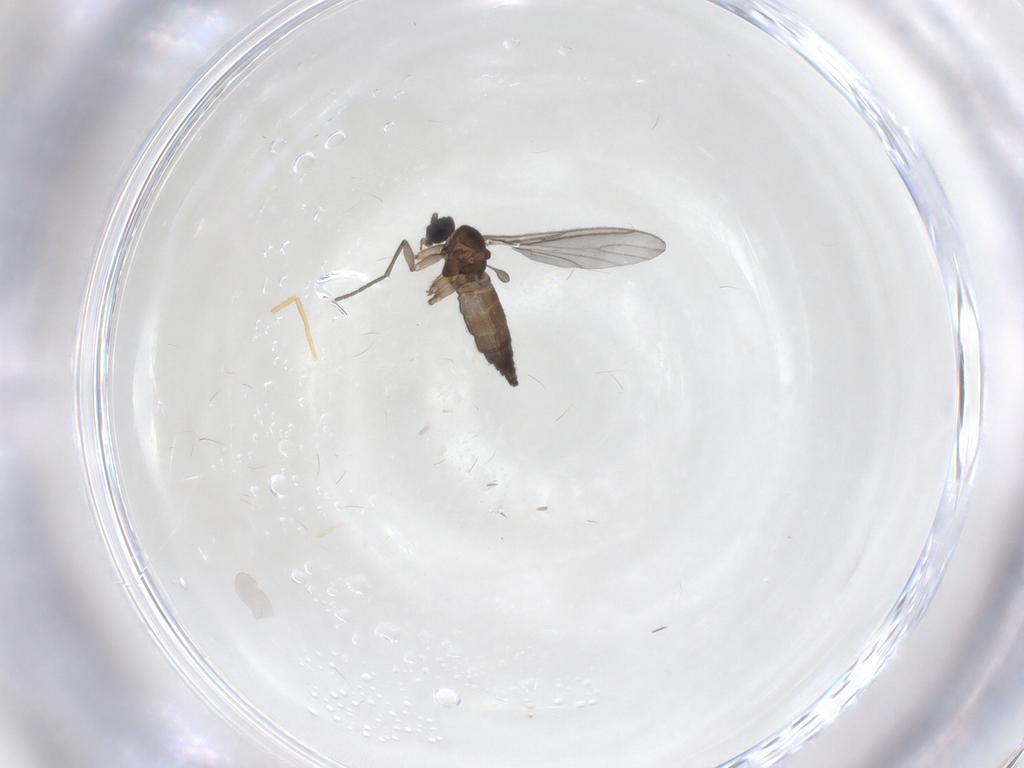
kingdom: Animalia
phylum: Arthropoda
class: Insecta
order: Diptera
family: Sciaridae
